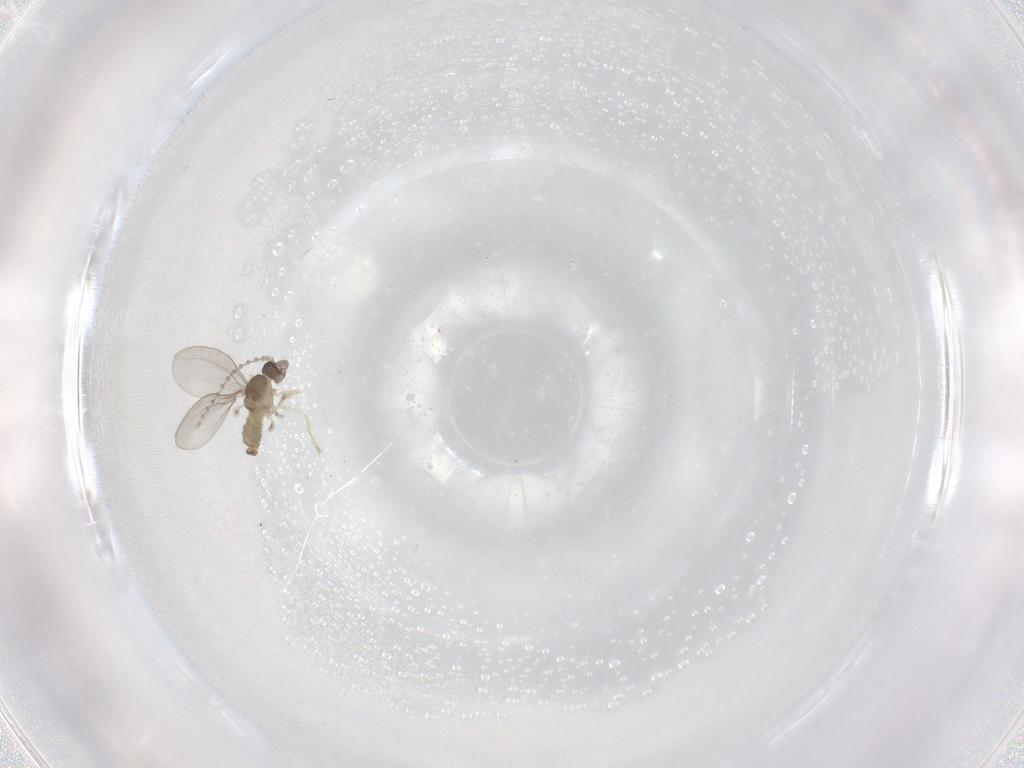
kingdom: Animalia
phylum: Arthropoda
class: Insecta
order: Diptera
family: Cecidomyiidae
